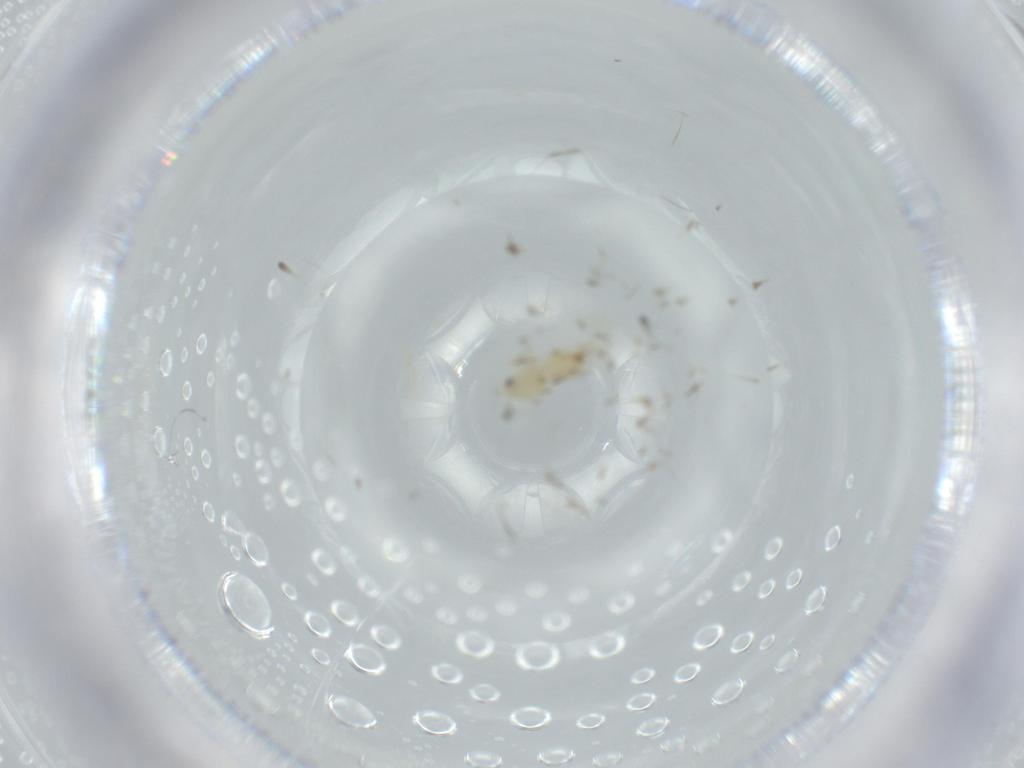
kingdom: Animalia
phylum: Arthropoda
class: Insecta
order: Hemiptera
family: Aleyrodidae
